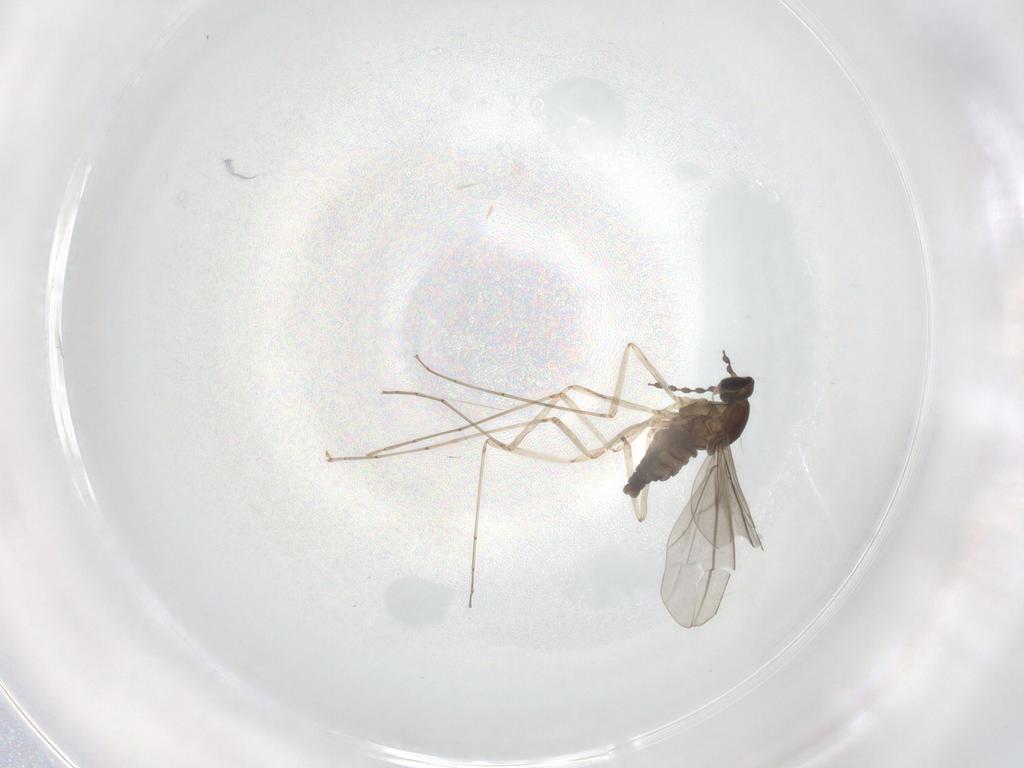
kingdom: Animalia
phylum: Arthropoda
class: Insecta
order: Diptera
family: Cecidomyiidae
